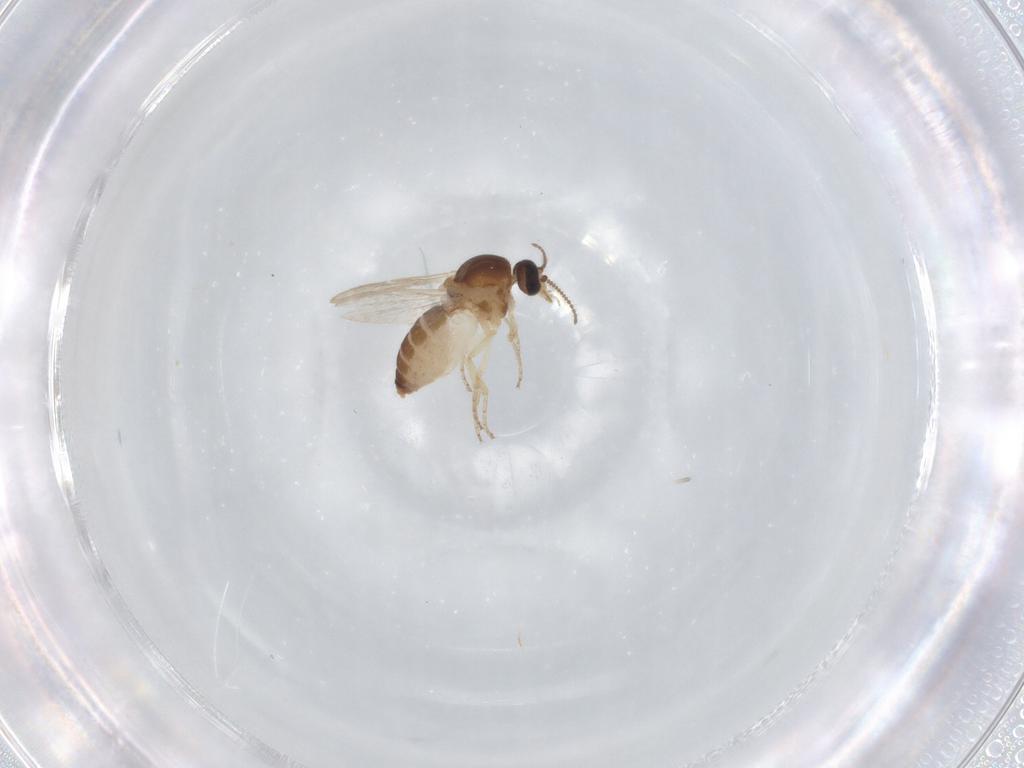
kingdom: Animalia
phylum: Arthropoda
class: Insecta
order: Diptera
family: Ceratopogonidae
